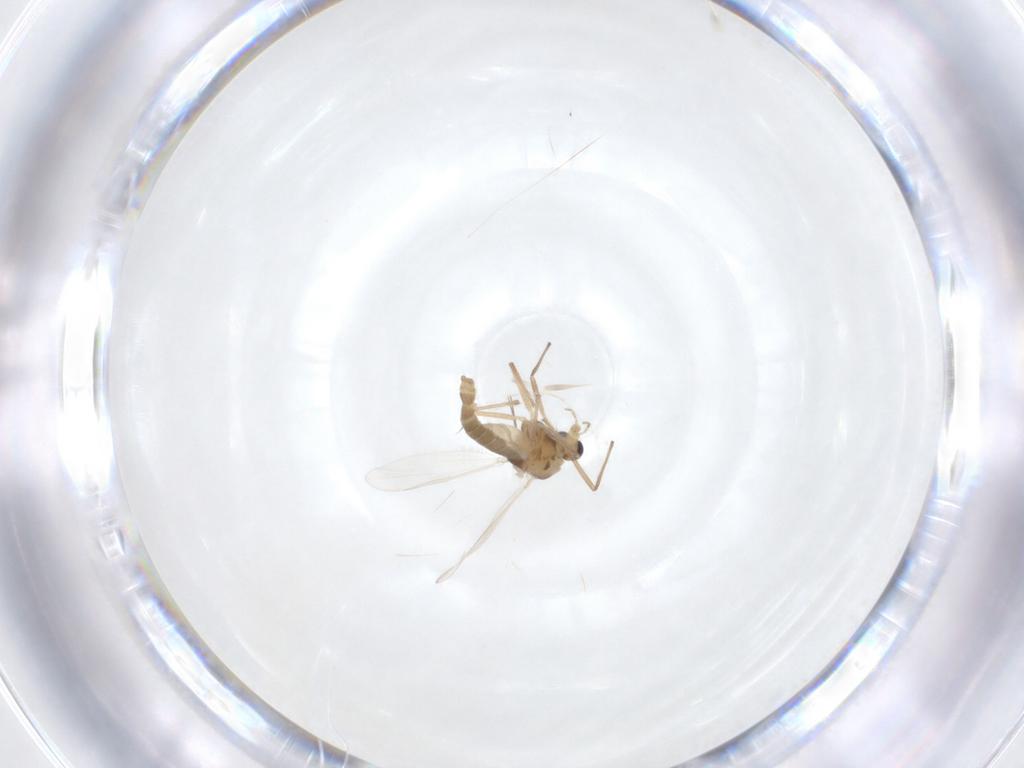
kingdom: Animalia
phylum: Arthropoda
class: Insecta
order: Diptera
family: Chironomidae
